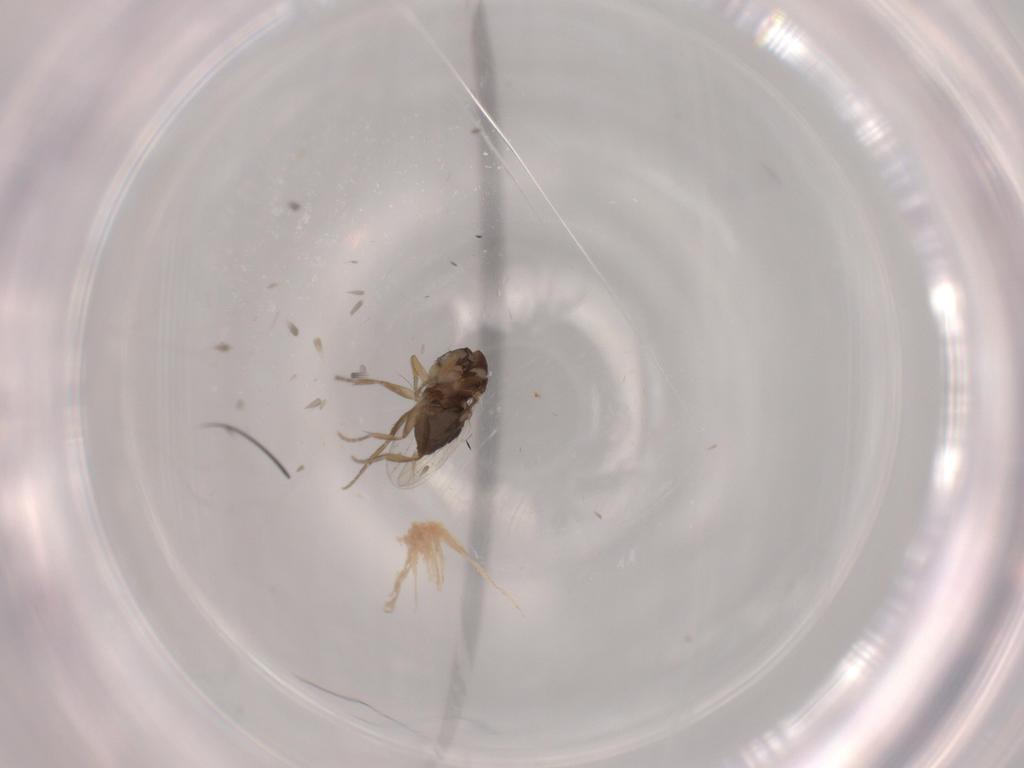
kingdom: Animalia
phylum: Arthropoda
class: Insecta
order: Diptera
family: Phoridae
